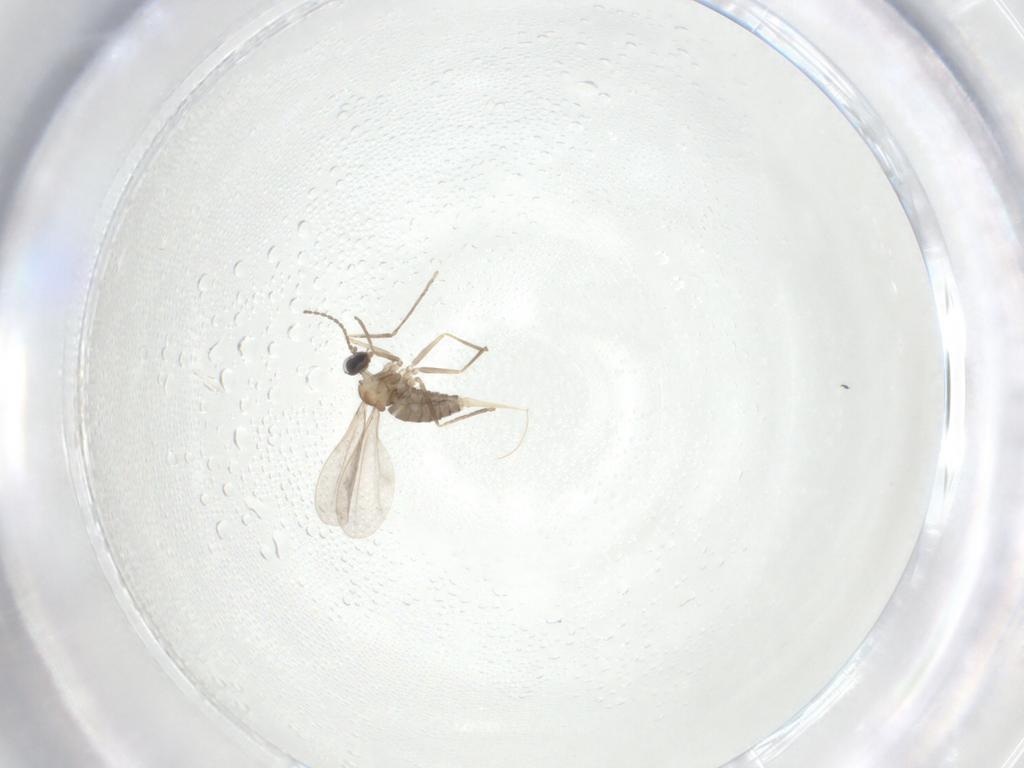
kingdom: Animalia
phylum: Arthropoda
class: Insecta
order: Diptera
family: Cecidomyiidae
